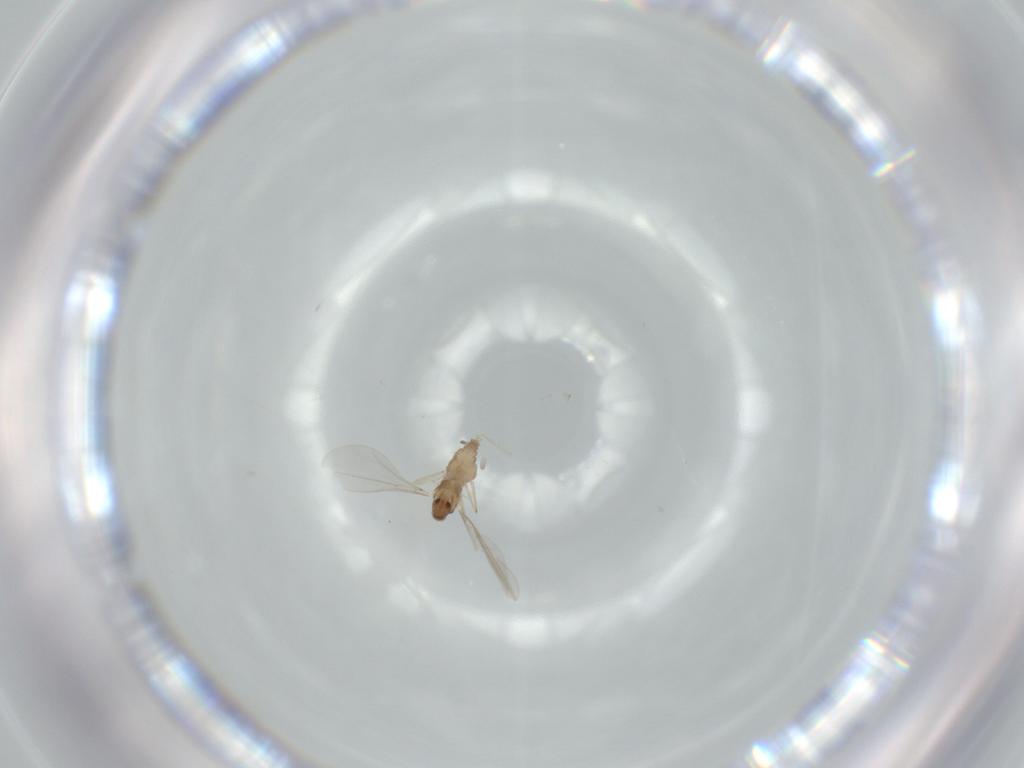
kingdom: Animalia
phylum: Arthropoda
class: Insecta
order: Diptera
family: Cecidomyiidae
